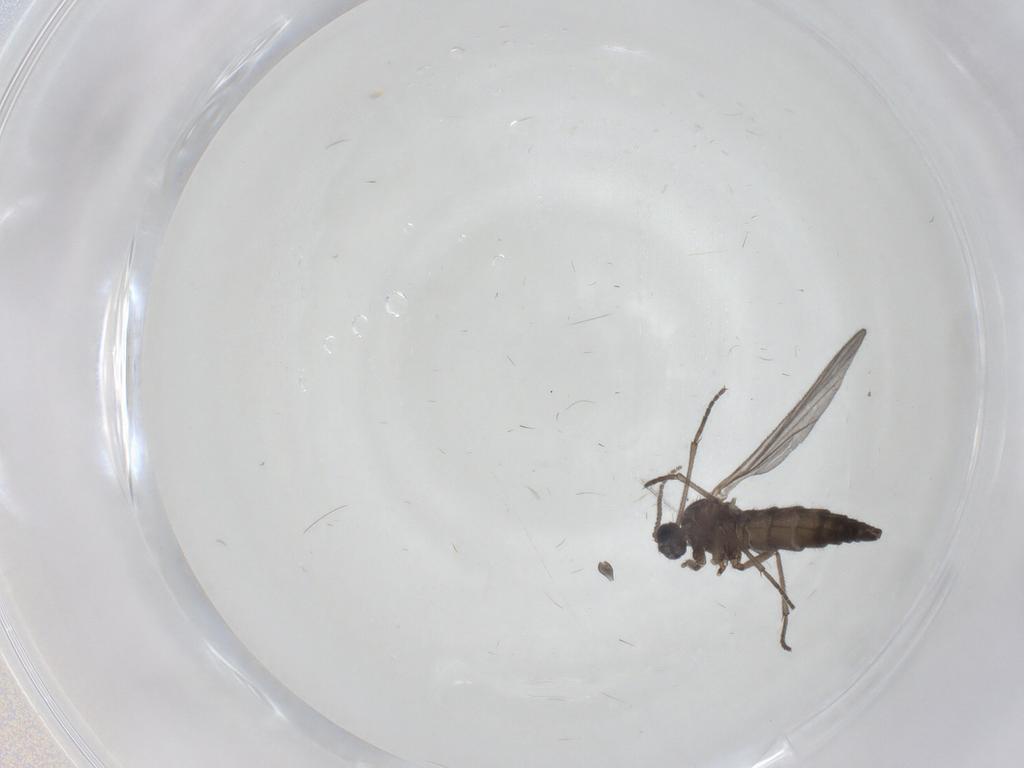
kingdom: Animalia
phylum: Arthropoda
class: Insecta
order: Diptera
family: Sciaridae
